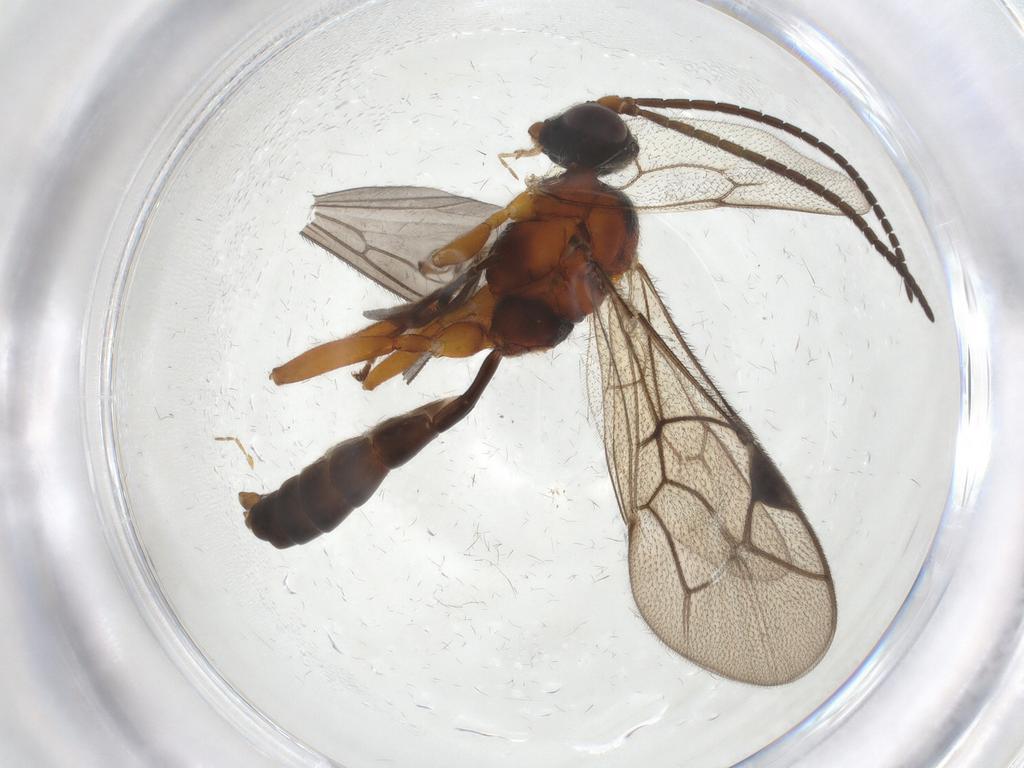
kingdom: Animalia
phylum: Arthropoda
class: Insecta
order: Hymenoptera
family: Ichneumonidae
